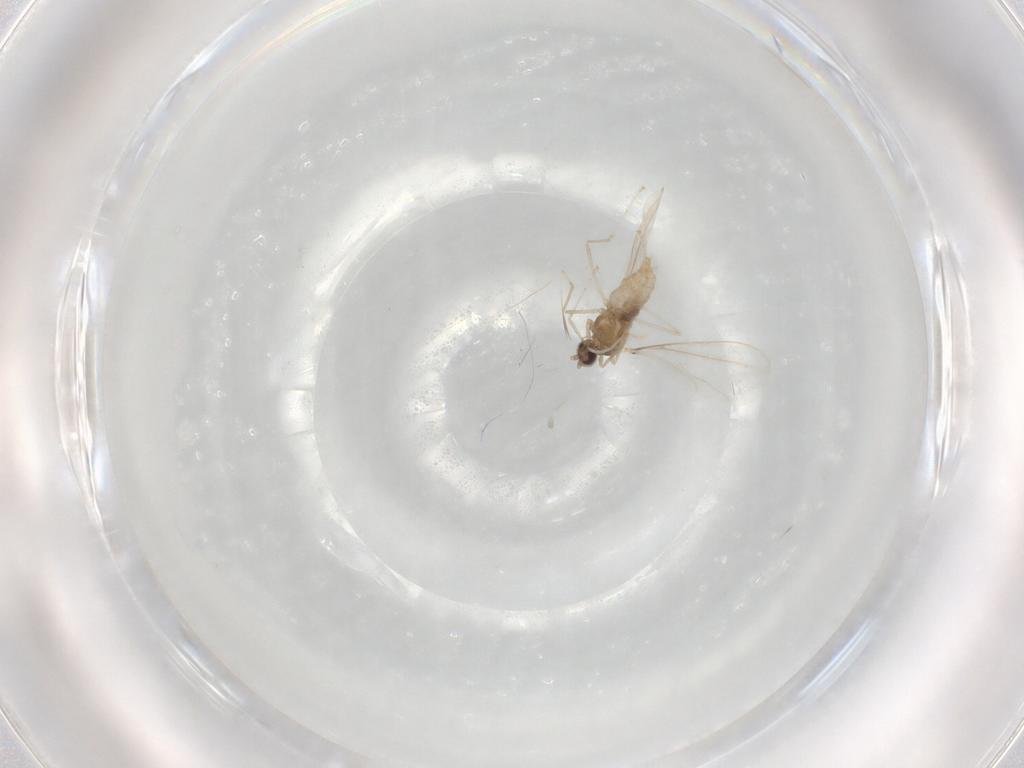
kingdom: Animalia
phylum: Arthropoda
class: Insecta
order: Diptera
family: Cecidomyiidae
